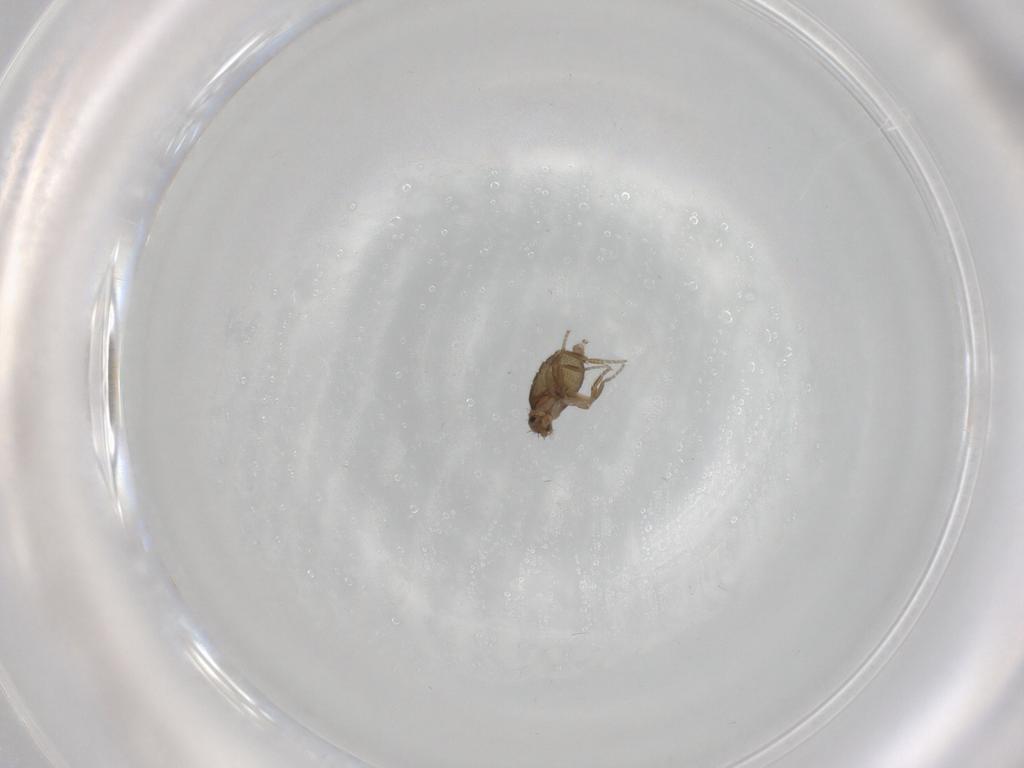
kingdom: Animalia
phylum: Arthropoda
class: Insecta
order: Diptera
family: Phoridae
